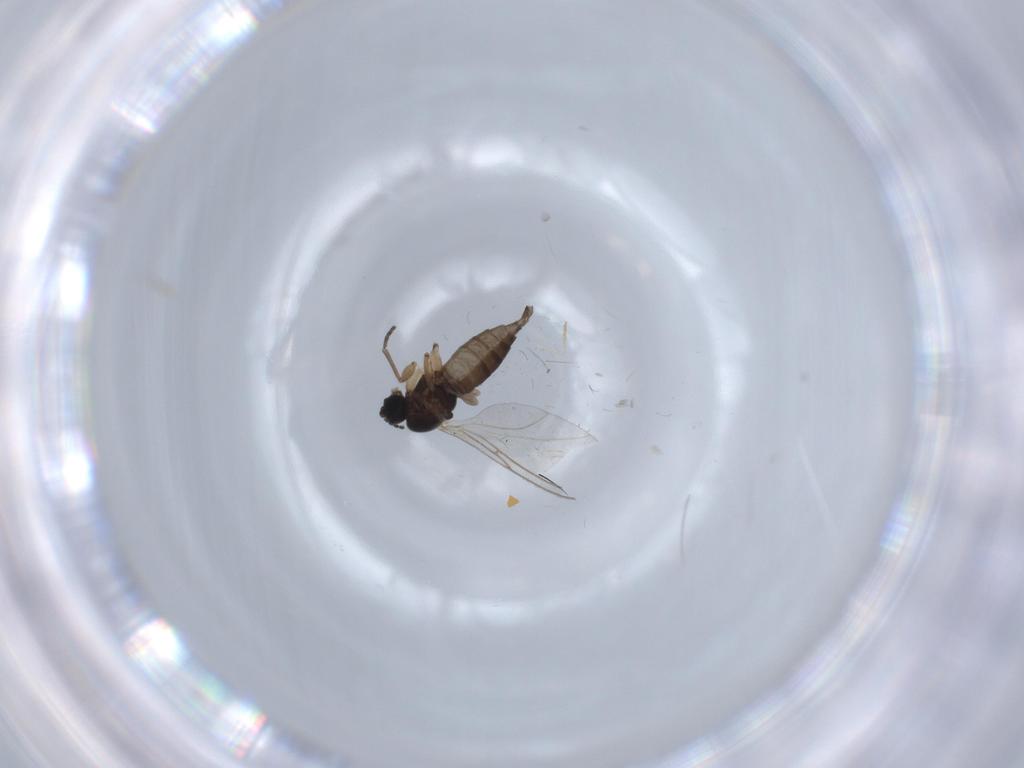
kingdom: Animalia
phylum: Arthropoda
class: Insecta
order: Diptera
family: Sciaridae
